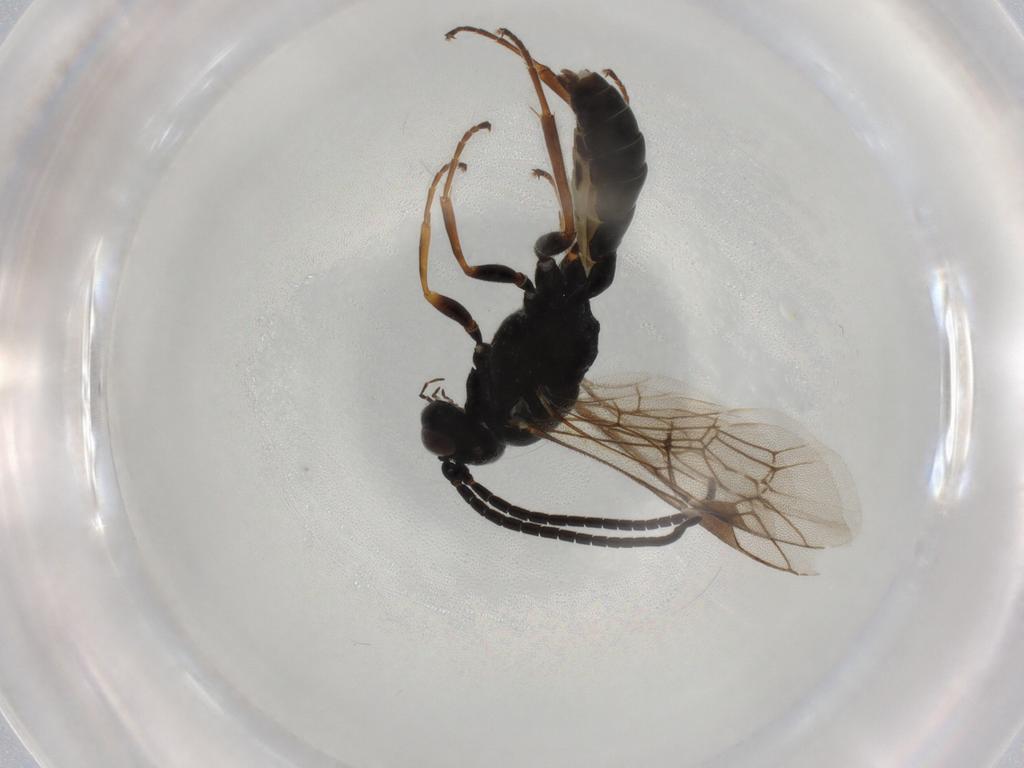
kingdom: Animalia
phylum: Arthropoda
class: Insecta
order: Hymenoptera
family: Ichneumonidae
